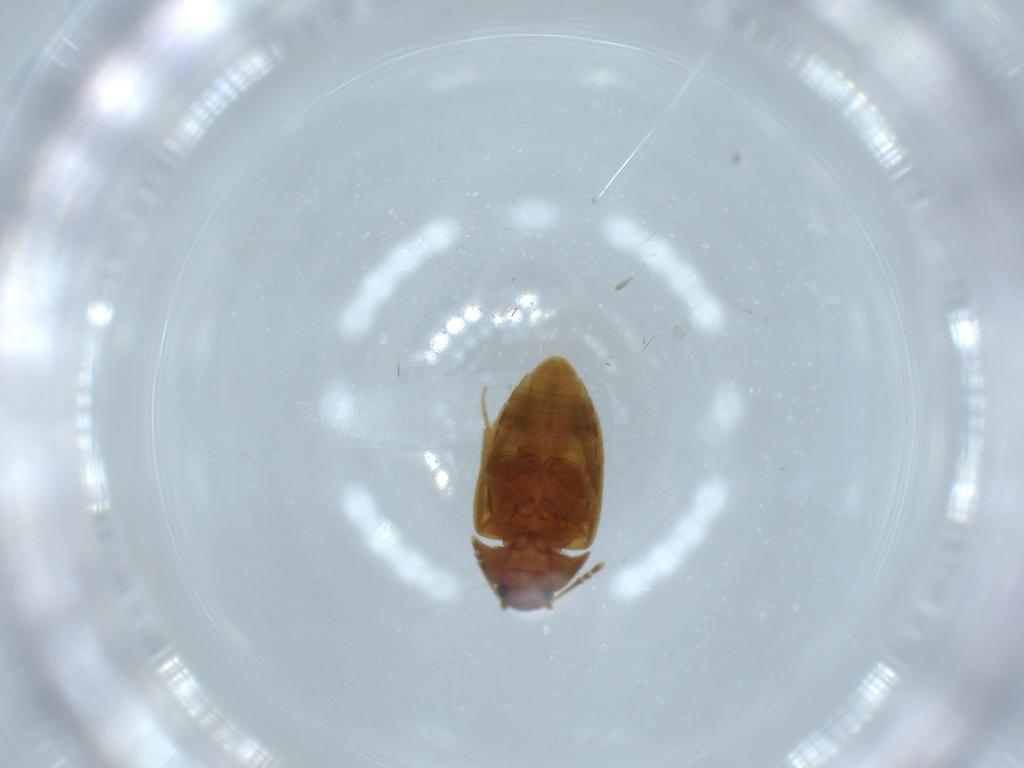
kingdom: Animalia
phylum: Arthropoda
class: Insecta
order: Coleoptera
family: Mycetophagidae
